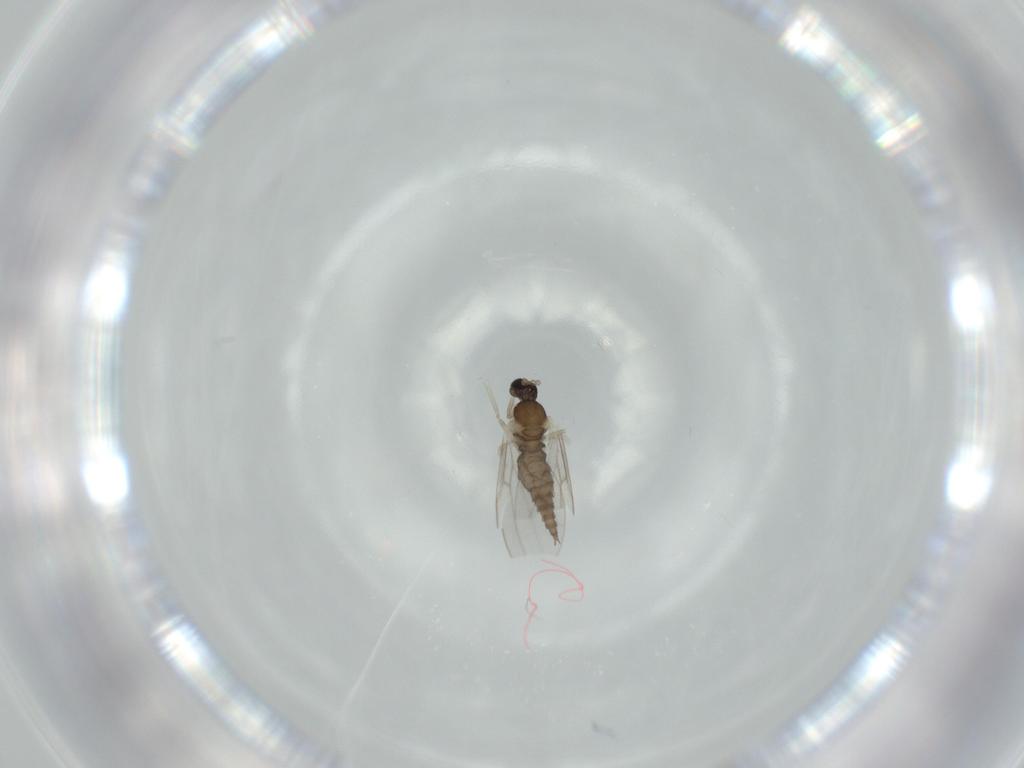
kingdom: Animalia
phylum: Arthropoda
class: Insecta
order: Diptera
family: Cecidomyiidae
